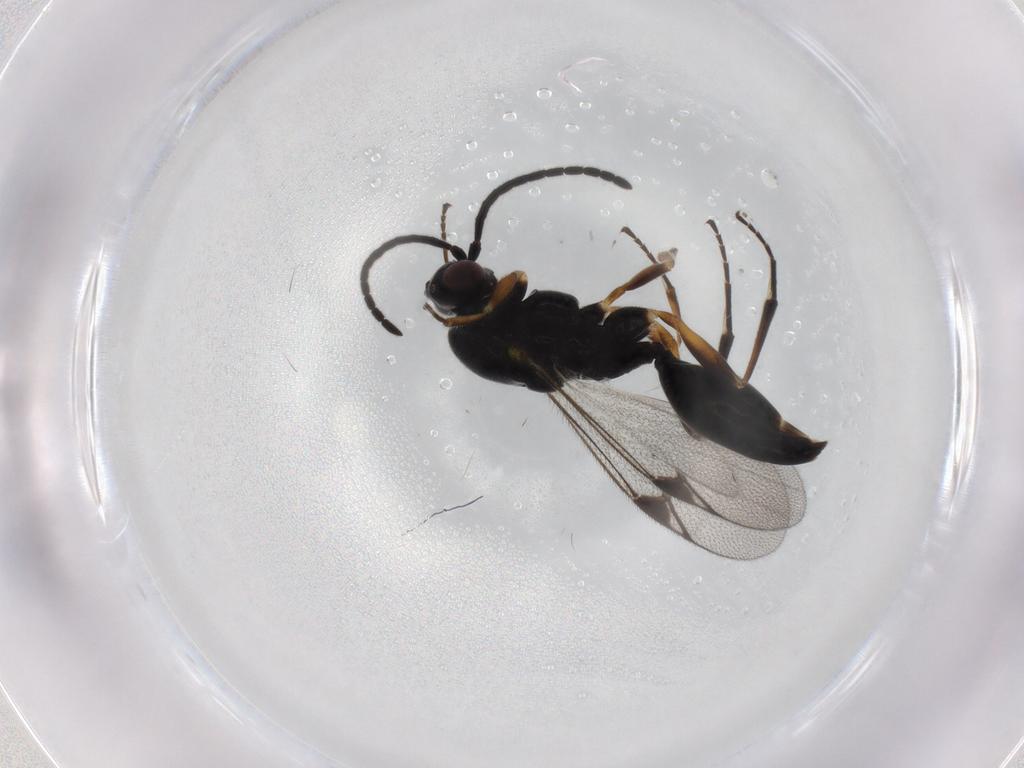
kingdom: Animalia
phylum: Arthropoda
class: Insecta
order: Hymenoptera
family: Proctotrupidae
